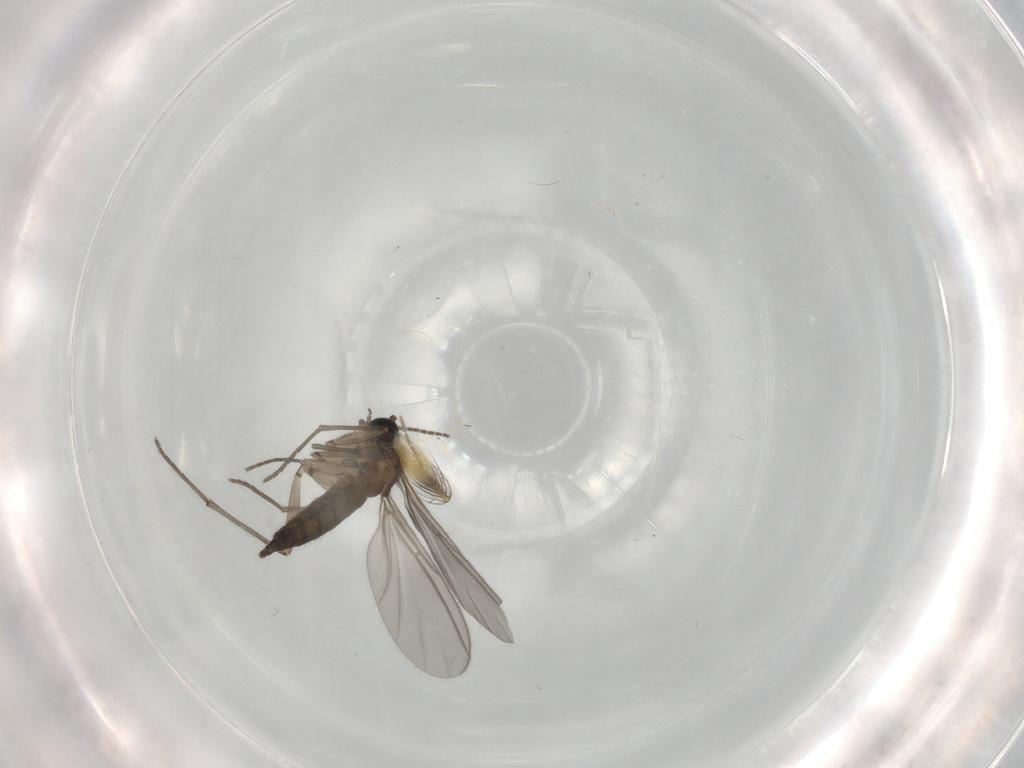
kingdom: Animalia
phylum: Arthropoda
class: Insecta
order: Diptera
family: Sciaridae
